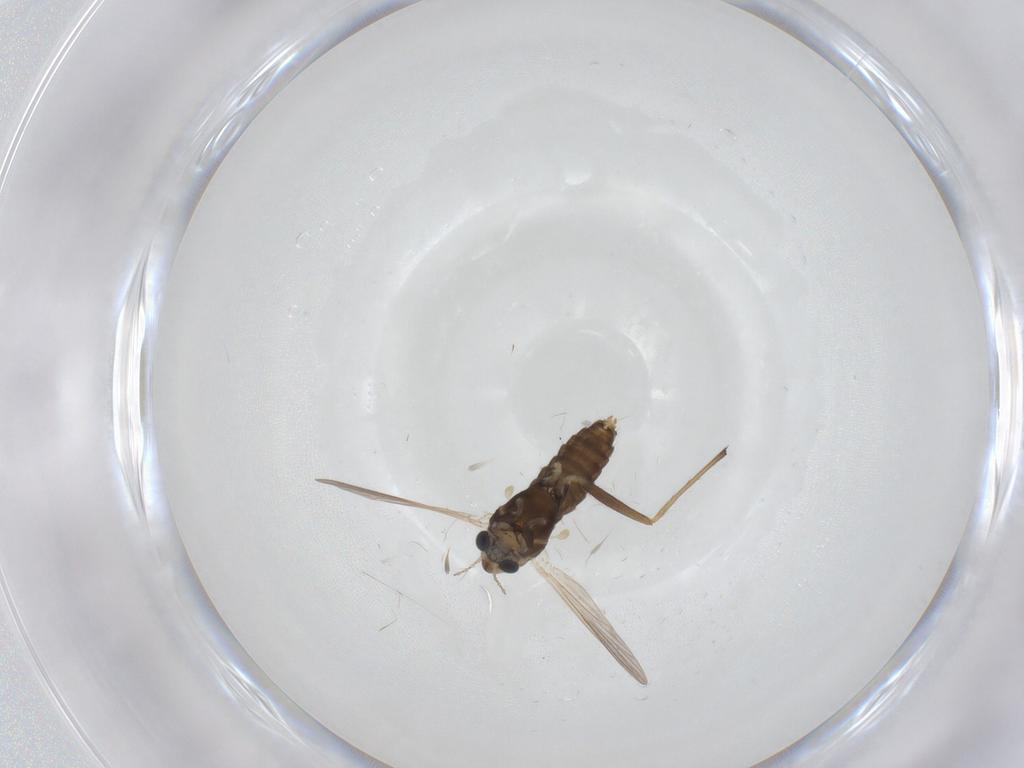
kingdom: Animalia
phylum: Arthropoda
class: Insecta
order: Diptera
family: Chironomidae
